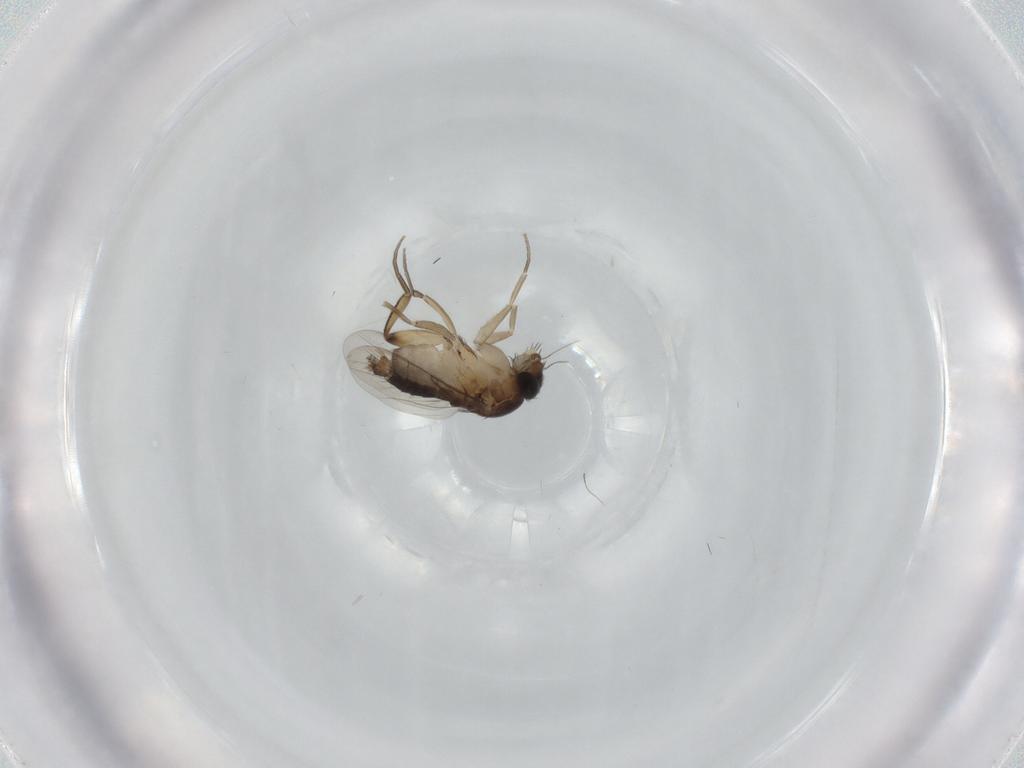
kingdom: Animalia
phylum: Arthropoda
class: Insecta
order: Diptera
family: Phoridae
